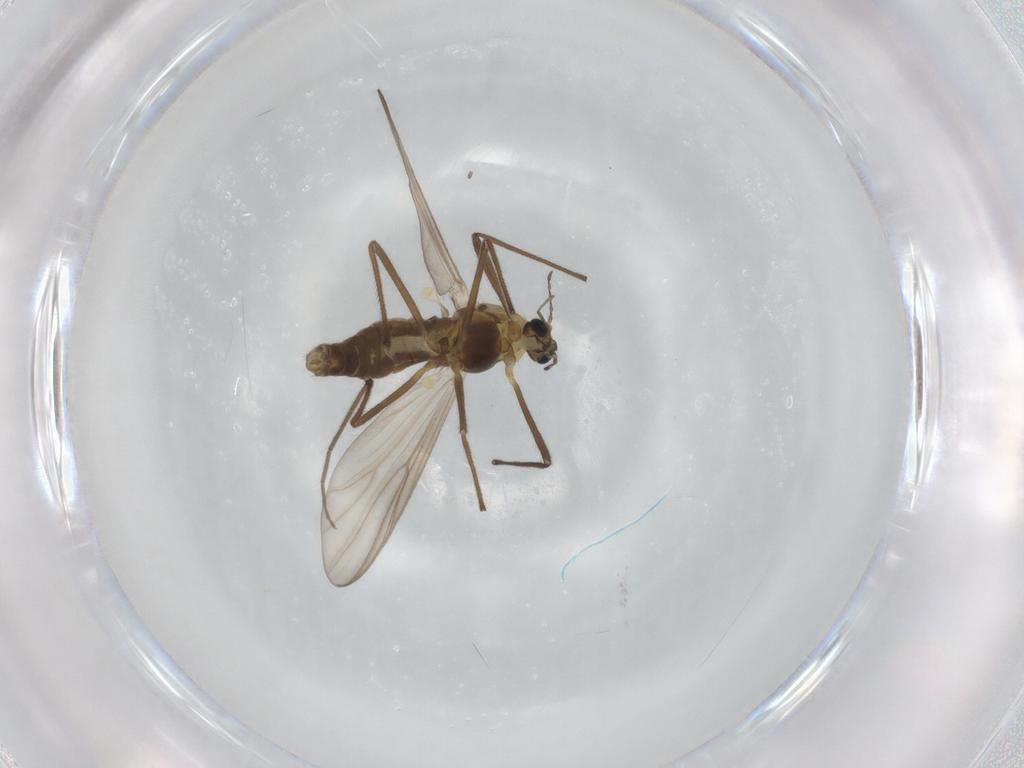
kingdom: Animalia
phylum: Arthropoda
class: Insecta
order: Diptera
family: Chironomidae
